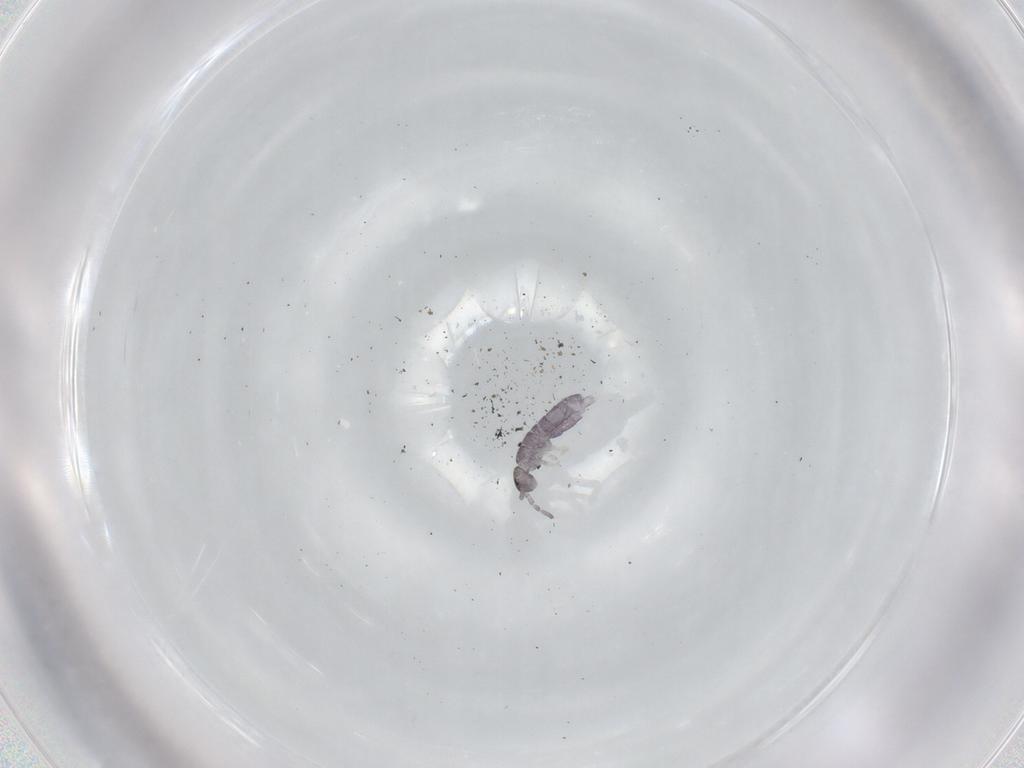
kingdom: Animalia
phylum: Arthropoda
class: Collembola
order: Entomobryomorpha
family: Isotomidae
